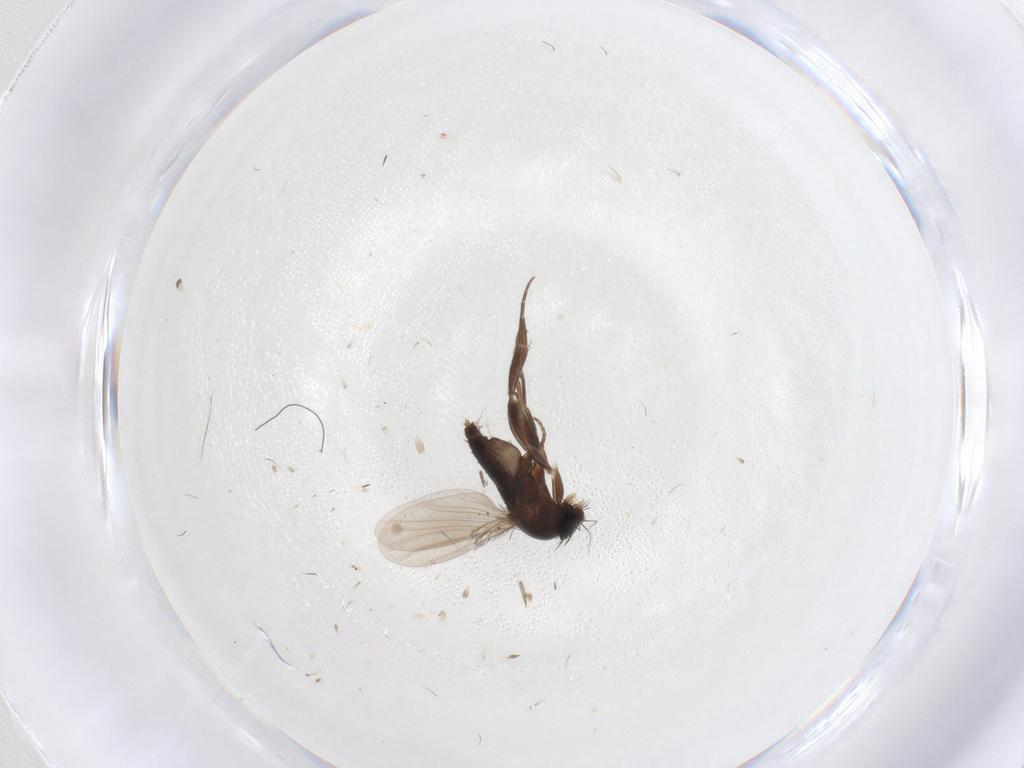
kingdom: Animalia
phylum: Arthropoda
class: Insecta
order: Diptera
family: Phoridae
